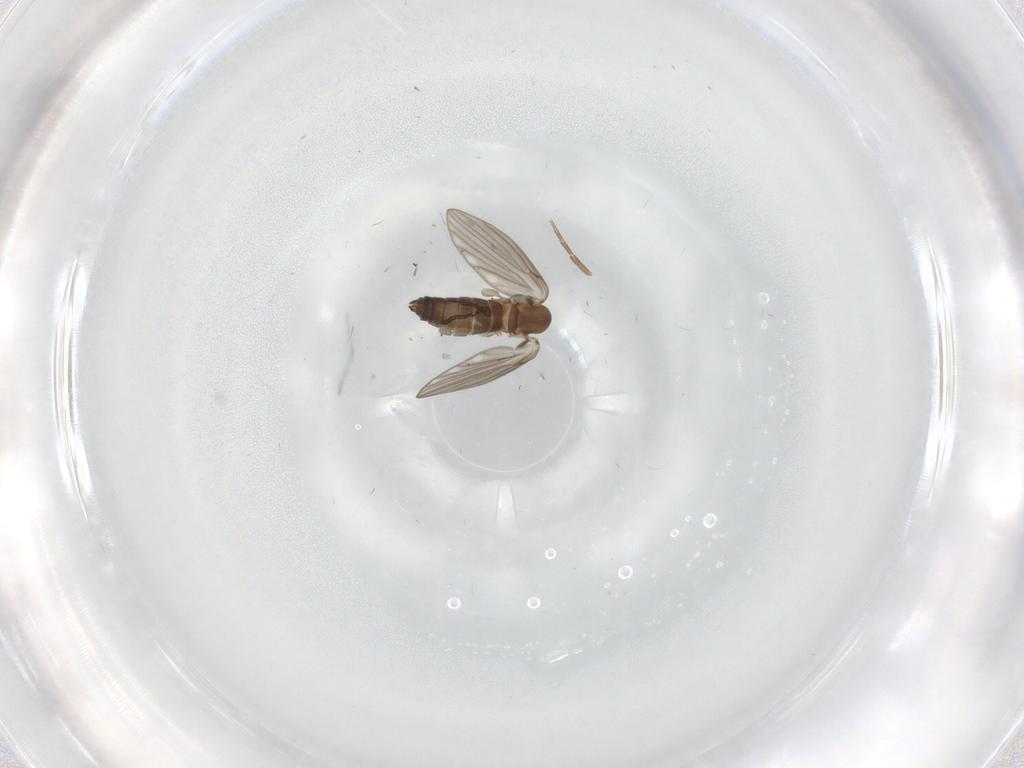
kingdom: Animalia
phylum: Arthropoda
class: Insecta
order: Diptera
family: Psychodidae
